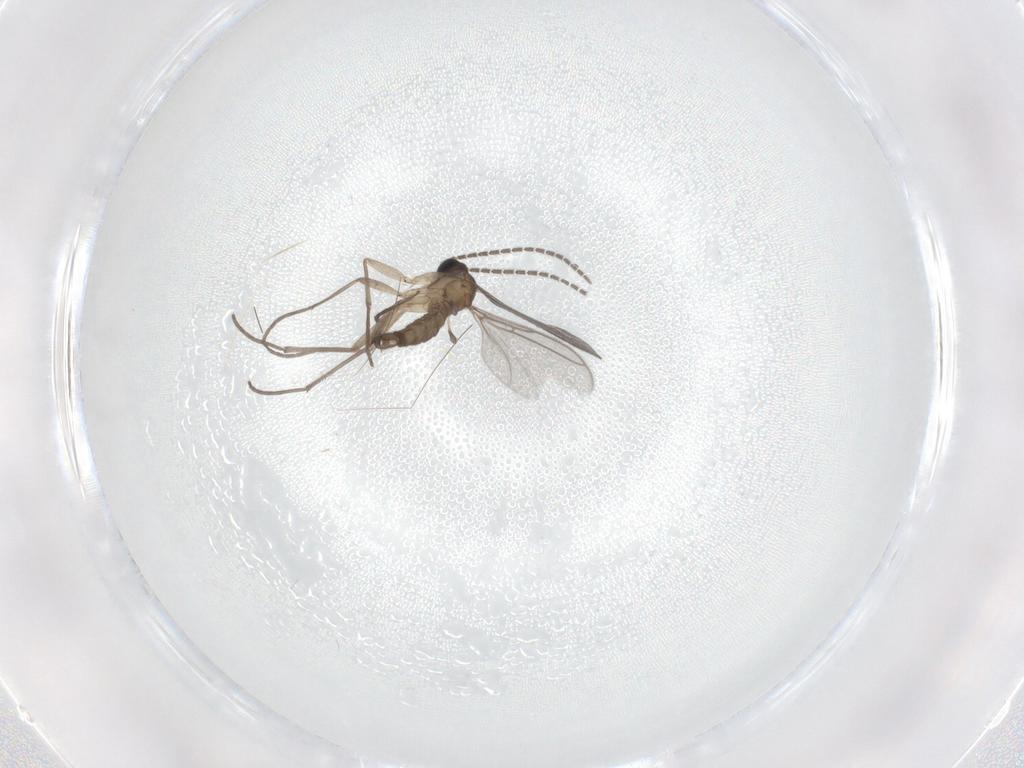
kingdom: Animalia
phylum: Arthropoda
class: Insecta
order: Diptera
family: Sciaridae
